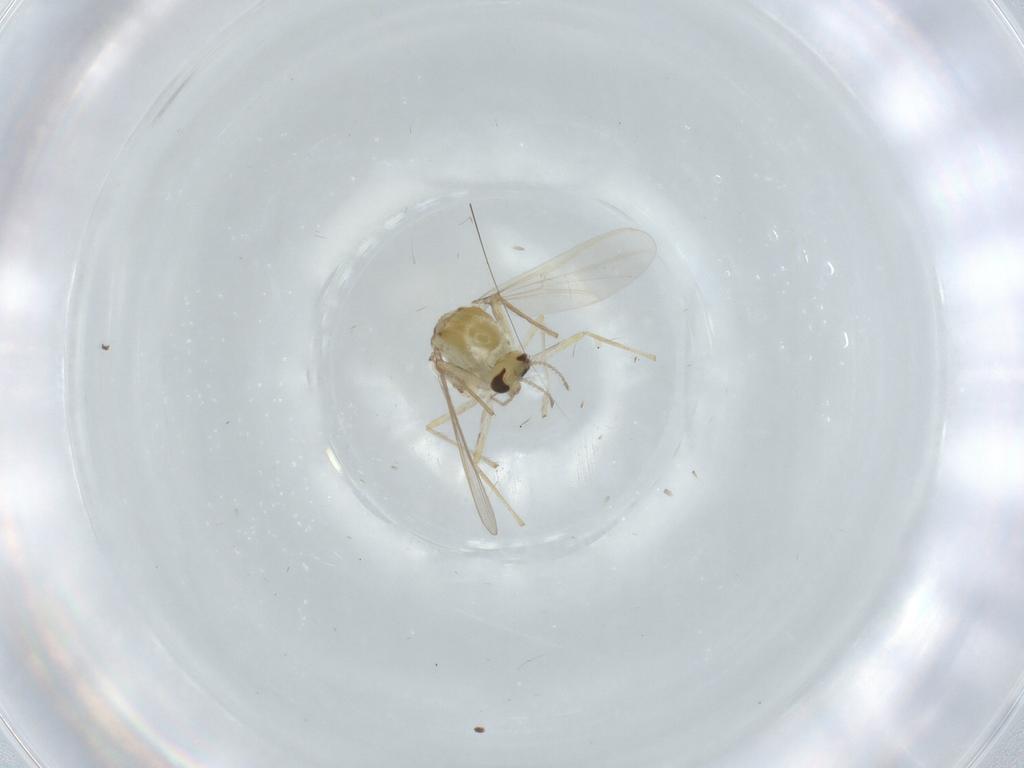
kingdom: Animalia
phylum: Arthropoda
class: Insecta
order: Diptera
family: Chironomidae
